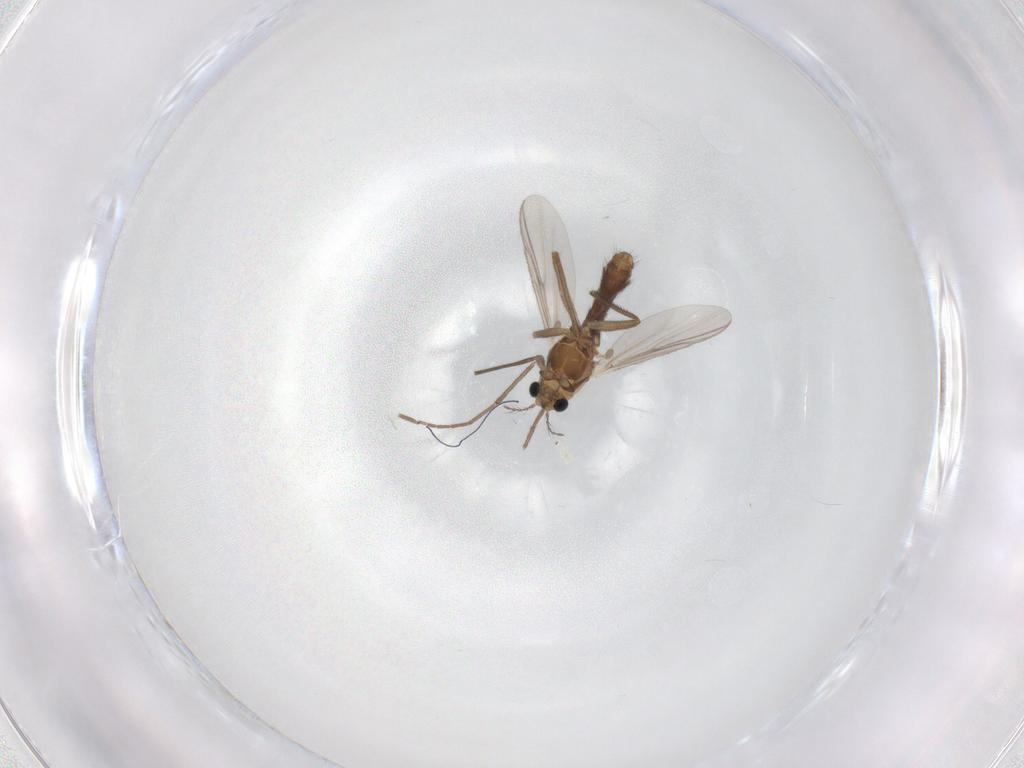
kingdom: Animalia
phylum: Arthropoda
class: Insecta
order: Diptera
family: Chironomidae
